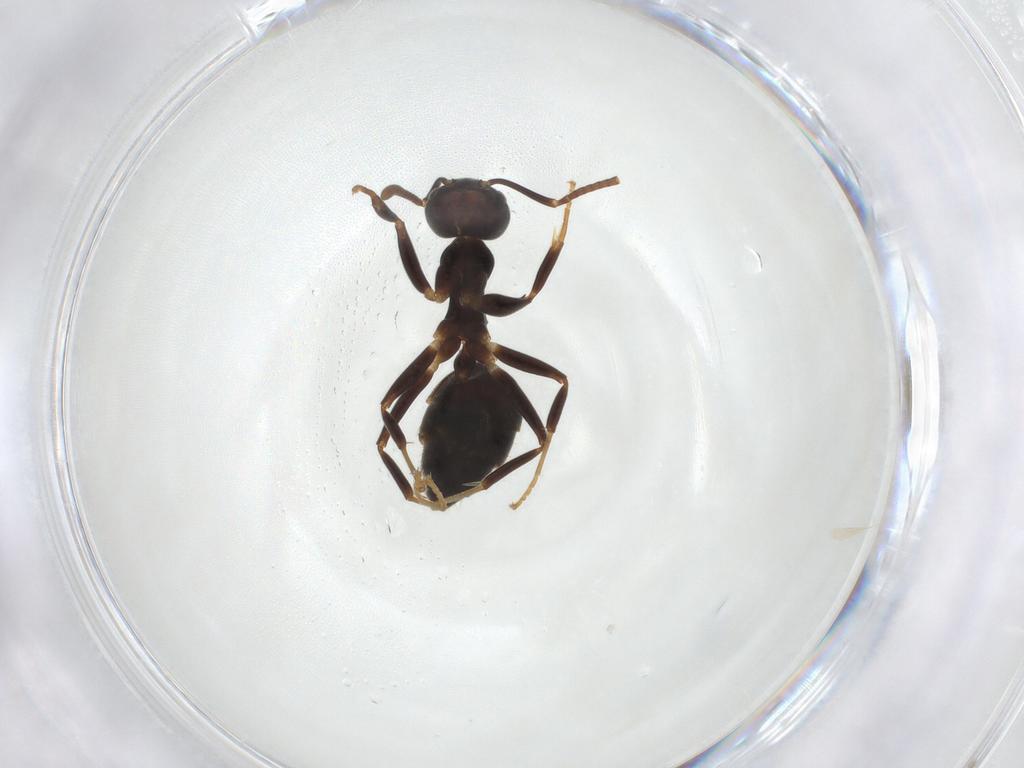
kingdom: Animalia
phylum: Arthropoda
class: Insecta
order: Hymenoptera
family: Formicidae
